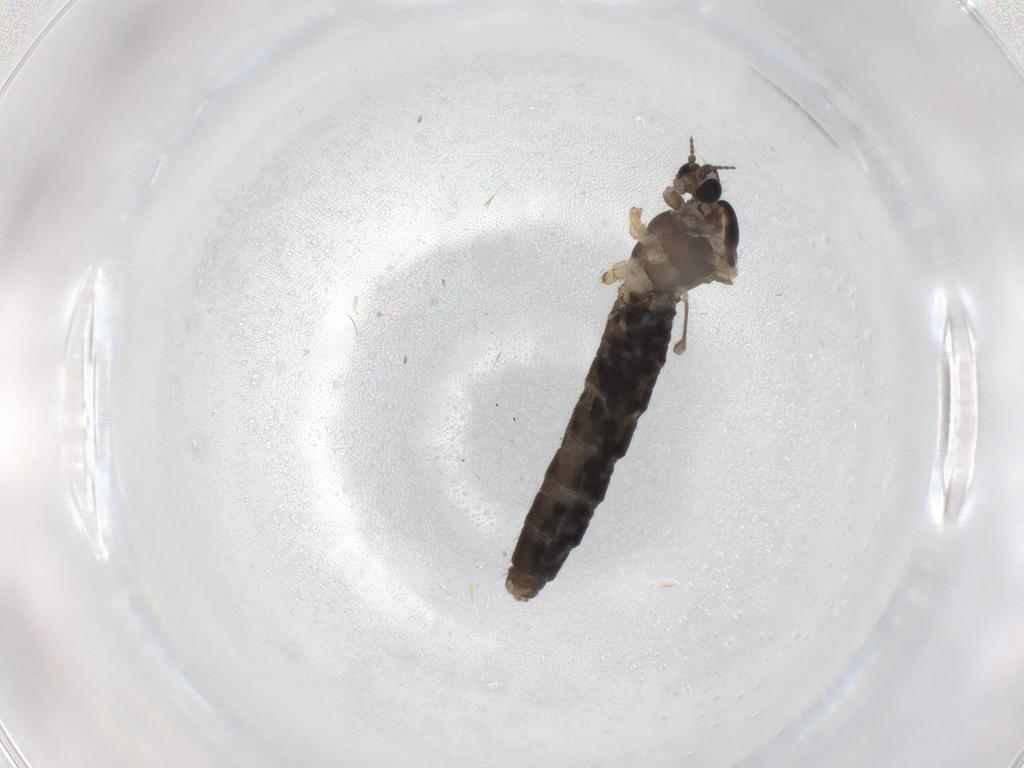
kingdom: Animalia
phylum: Arthropoda
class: Insecta
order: Diptera
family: Limoniidae
